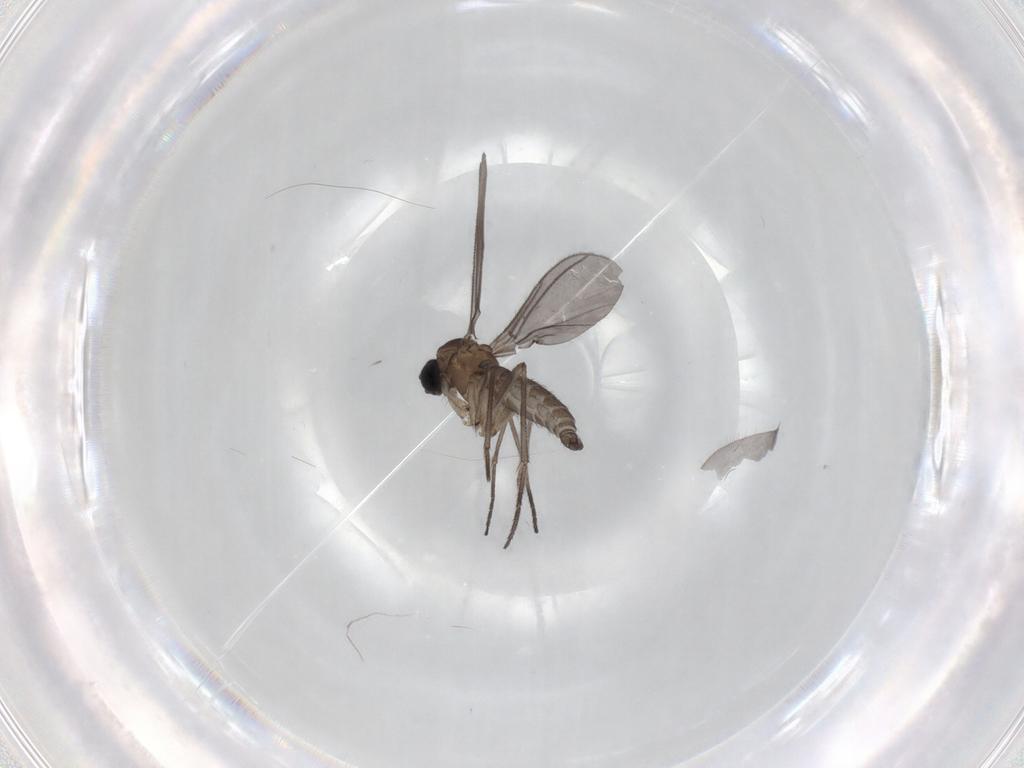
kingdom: Animalia
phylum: Arthropoda
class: Insecta
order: Diptera
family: Sciaridae
